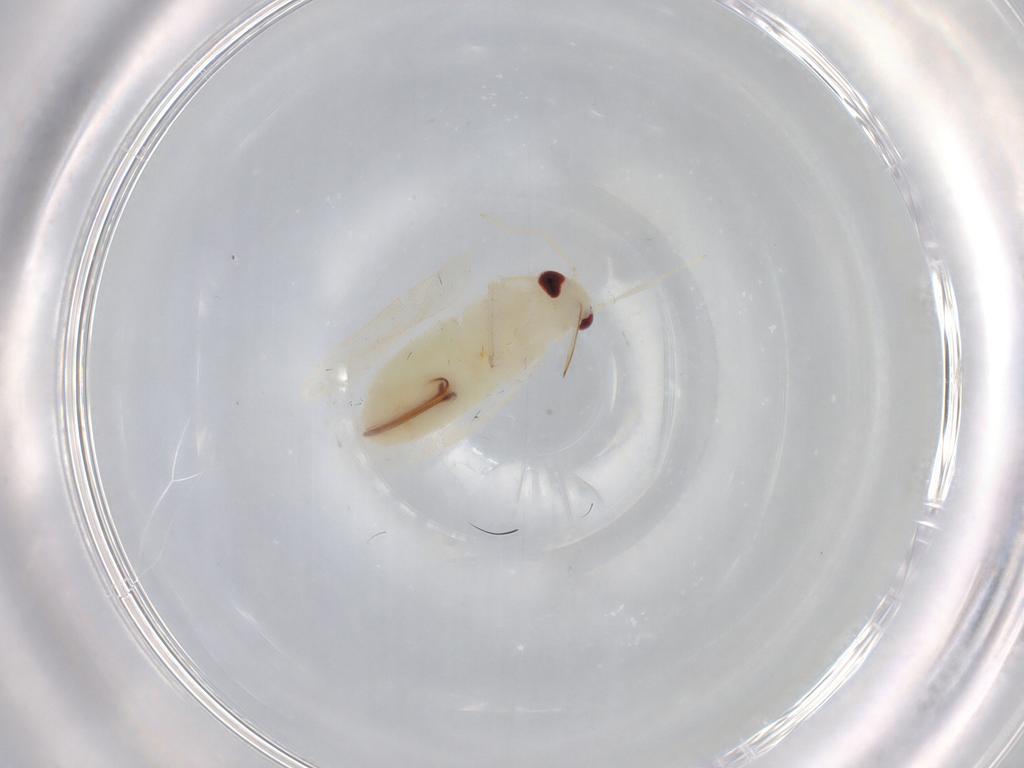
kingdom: Animalia
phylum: Arthropoda
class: Insecta
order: Hemiptera
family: Miridae
